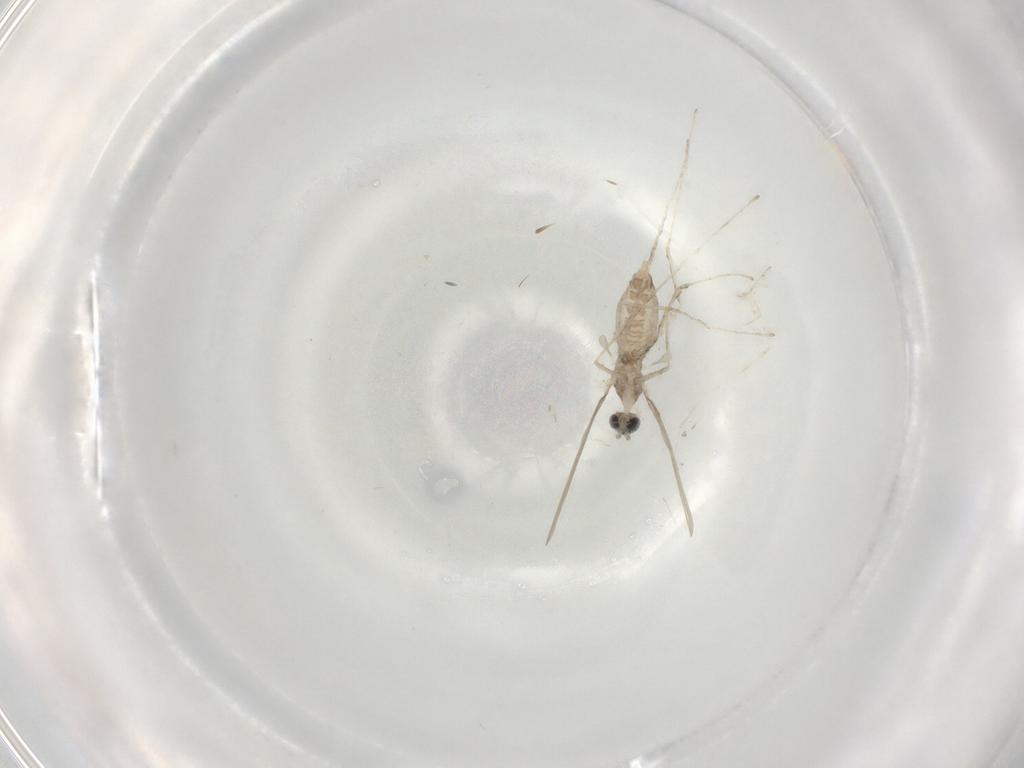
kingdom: Animalia
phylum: Arthropoda
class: Insecta
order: Diptera
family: Cecidomyiidae
